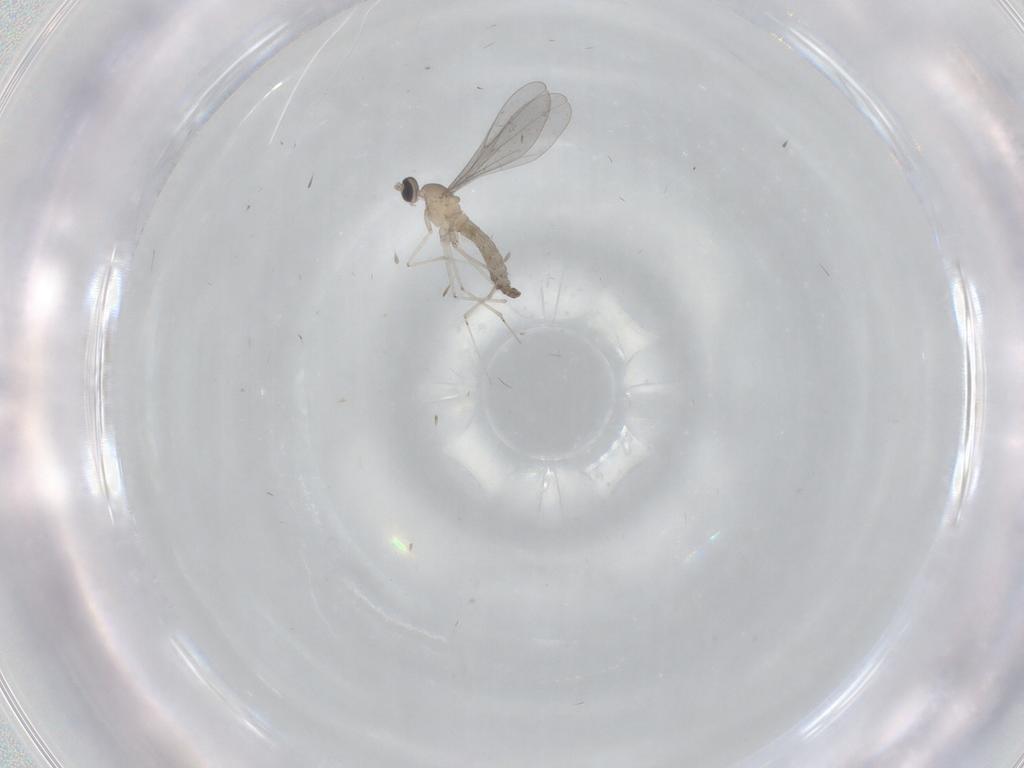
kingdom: Animalia
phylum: Arthropoda
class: Insecta
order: Diptera
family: Cecidomyiidae
